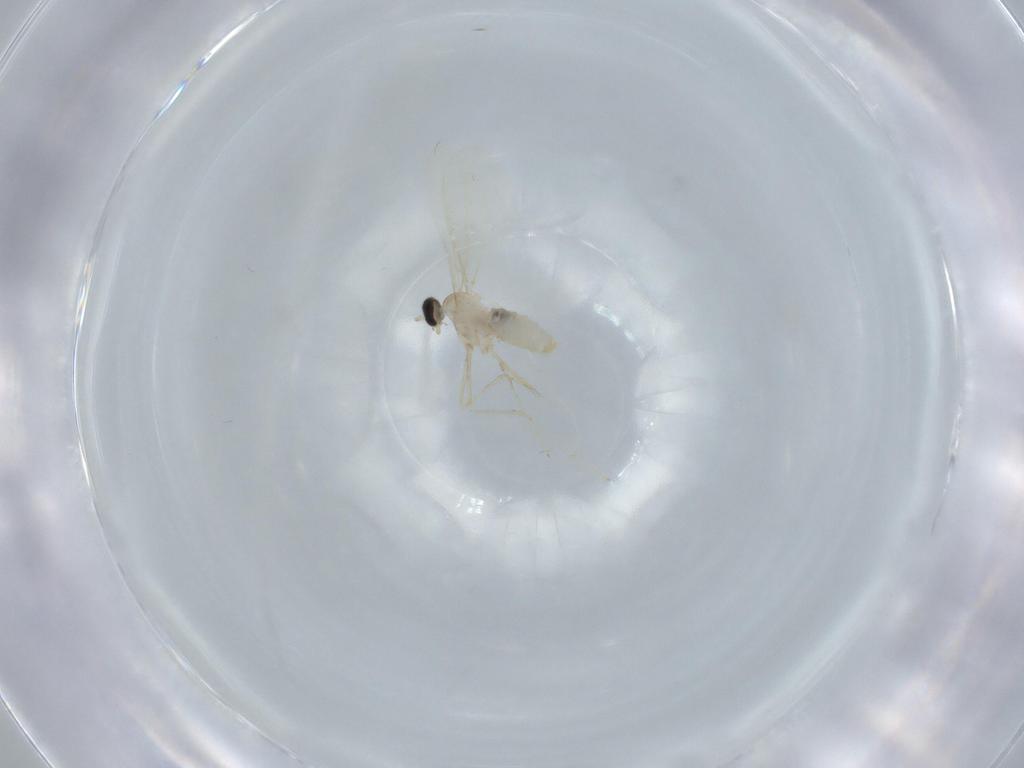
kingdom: Animalia
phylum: Arthropoda
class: Insecta
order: Diptera
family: Cecidomyiidae
